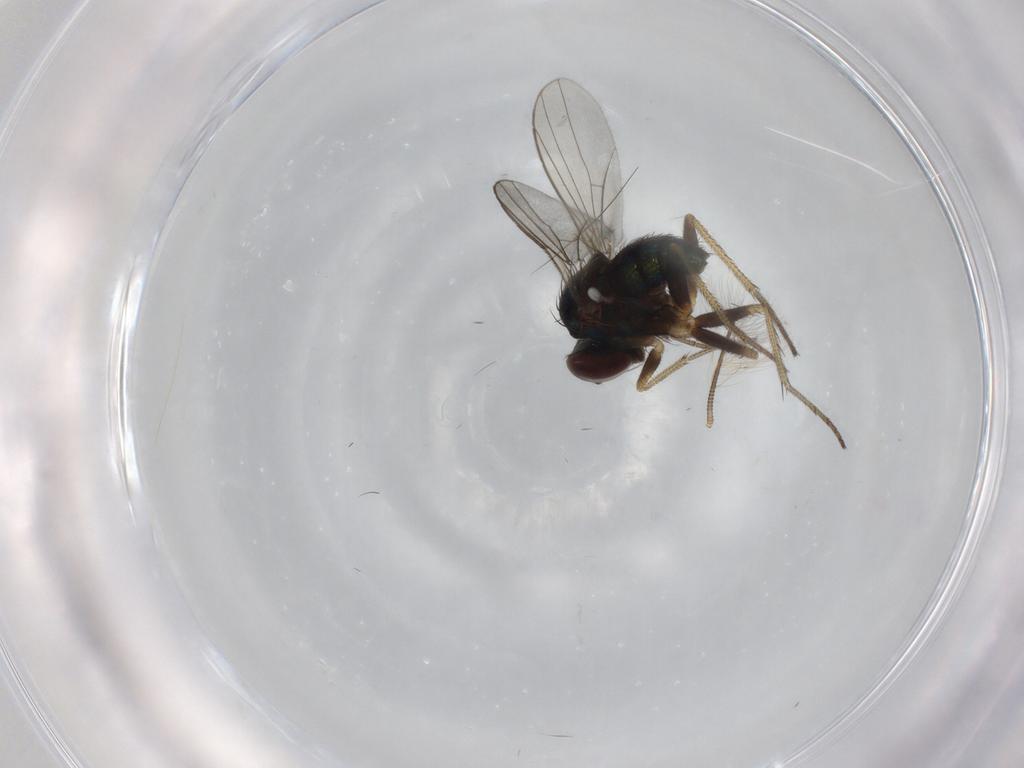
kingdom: Animalia
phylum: Arthropoda
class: Insecta
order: Diptera
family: Dolichopodidae
